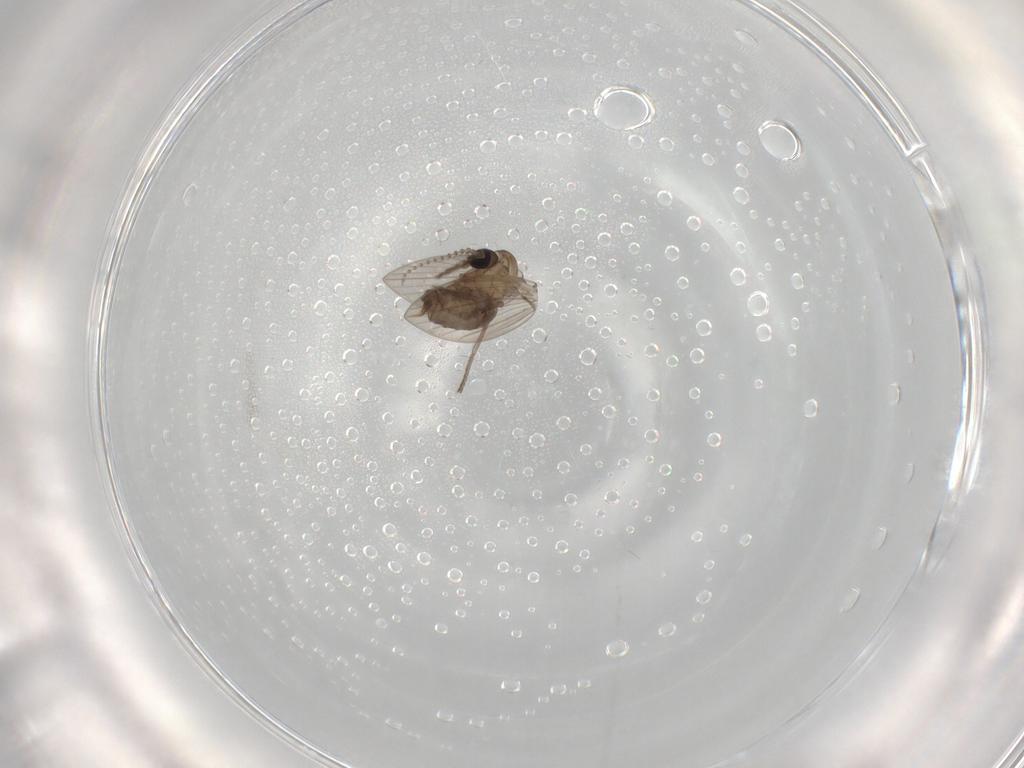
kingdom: Animalia
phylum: Arthropoda
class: Insecta
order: Diptera
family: Psychodidae
